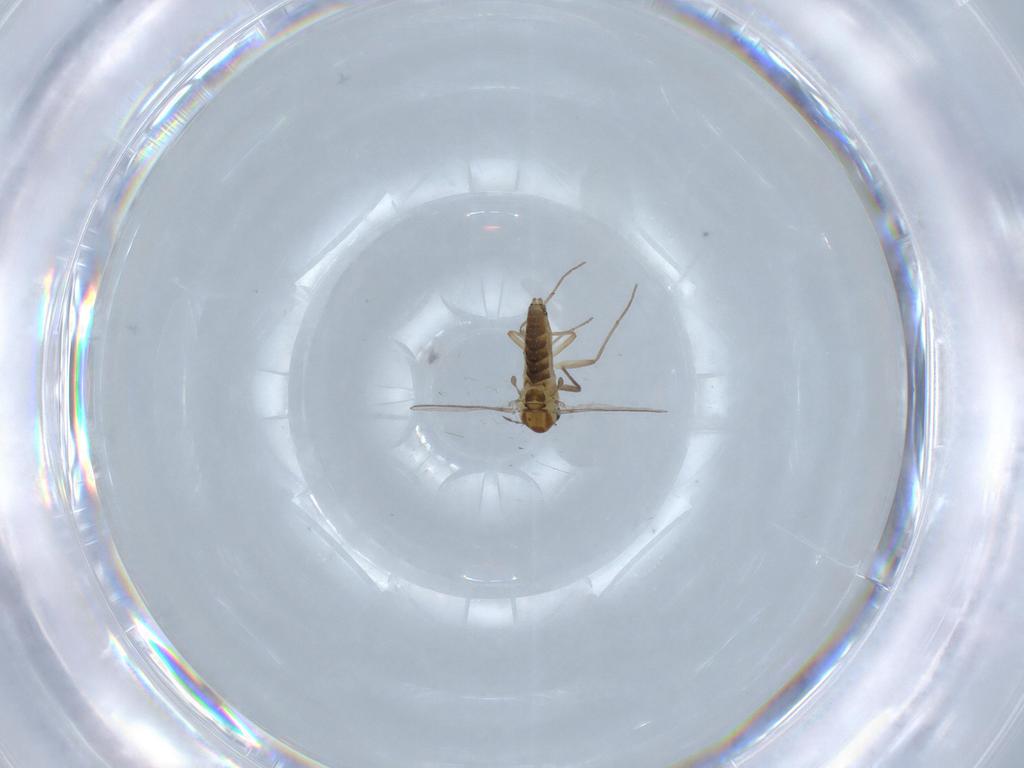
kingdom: Animalia
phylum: Arthropoda
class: Insecta
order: Diptera
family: Chironomidae
